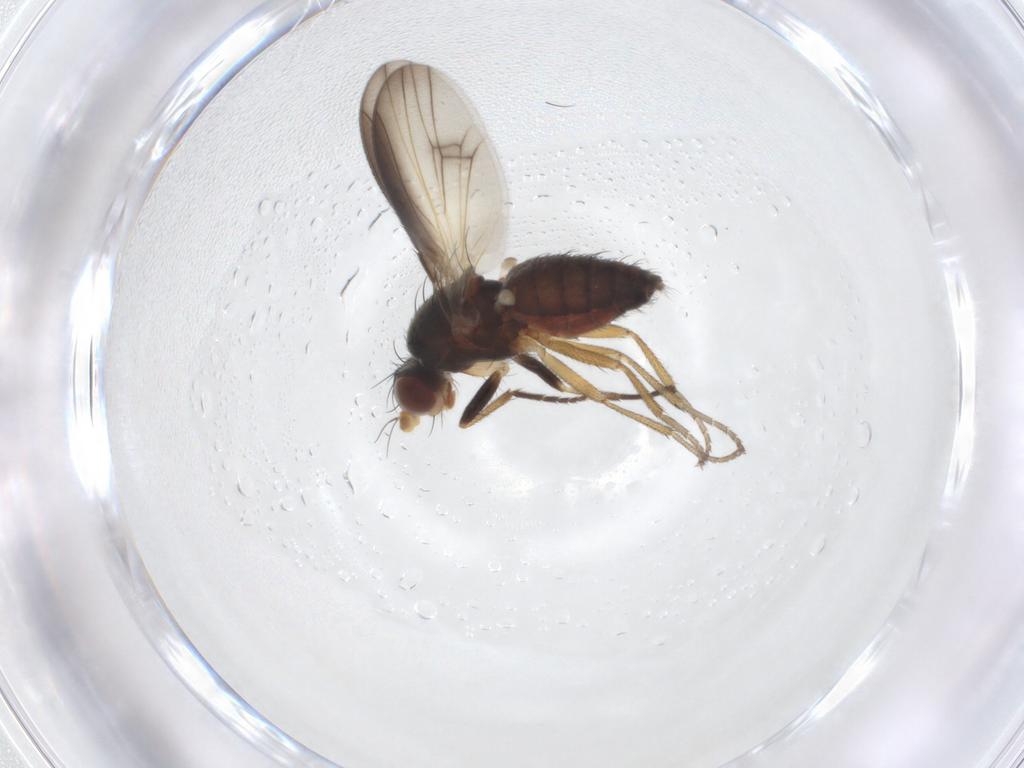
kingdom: Animalia
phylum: Arthropoda
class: Insecta
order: Diptera
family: Heleomyzidae
